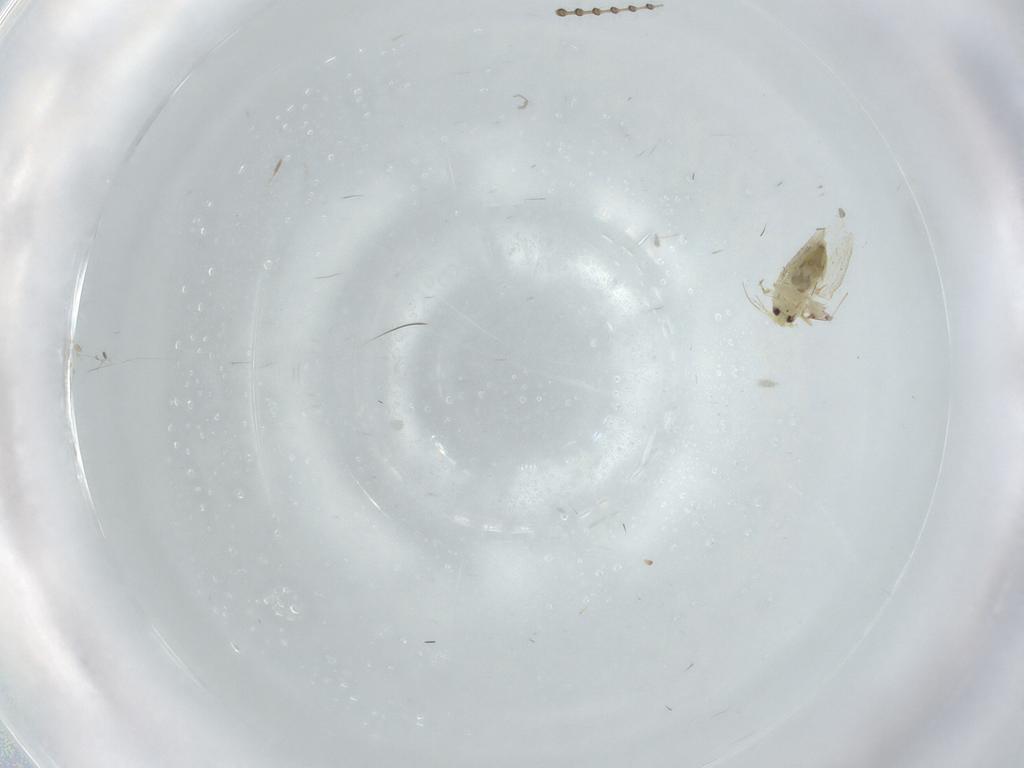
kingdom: Animalia
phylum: Arthropoda
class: Insecta
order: Hemiptera
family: Aleyrodidae
